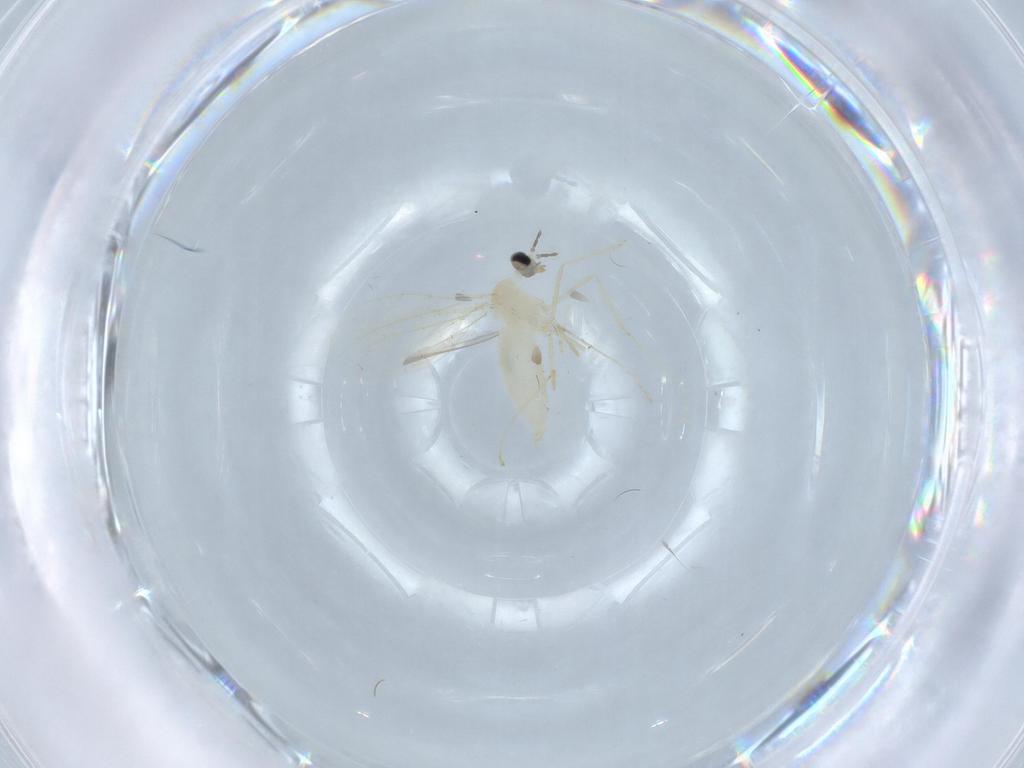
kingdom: Animalia
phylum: Arthropoda
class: Insecta
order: Diptera
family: Cecidomyiidae
